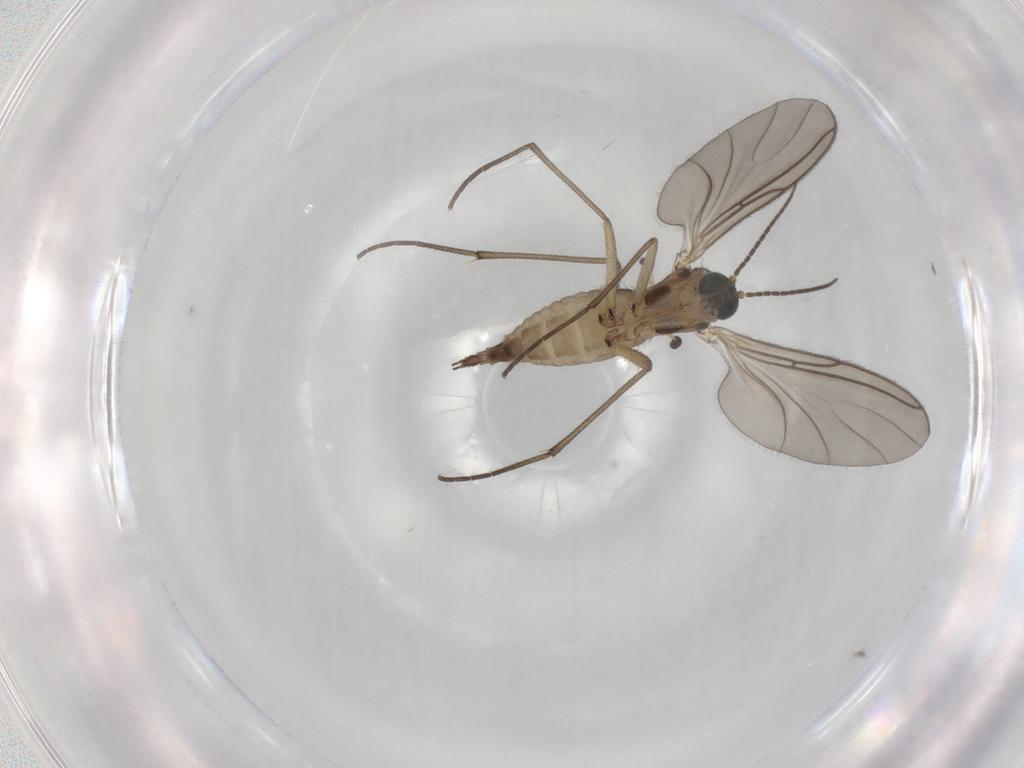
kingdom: Animalia
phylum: Arthropoda
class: Insecta
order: Diptera
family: Sciaridae
